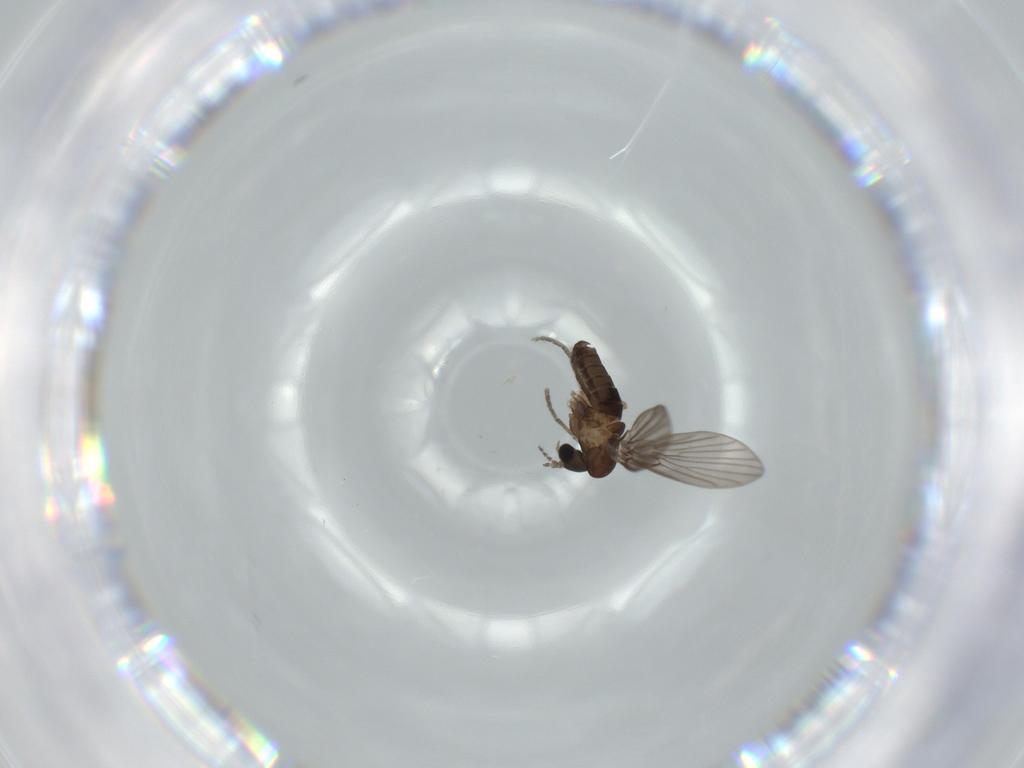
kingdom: Animalia
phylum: Arthropoda
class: Insecta
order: Diptera
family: Psychodidae
